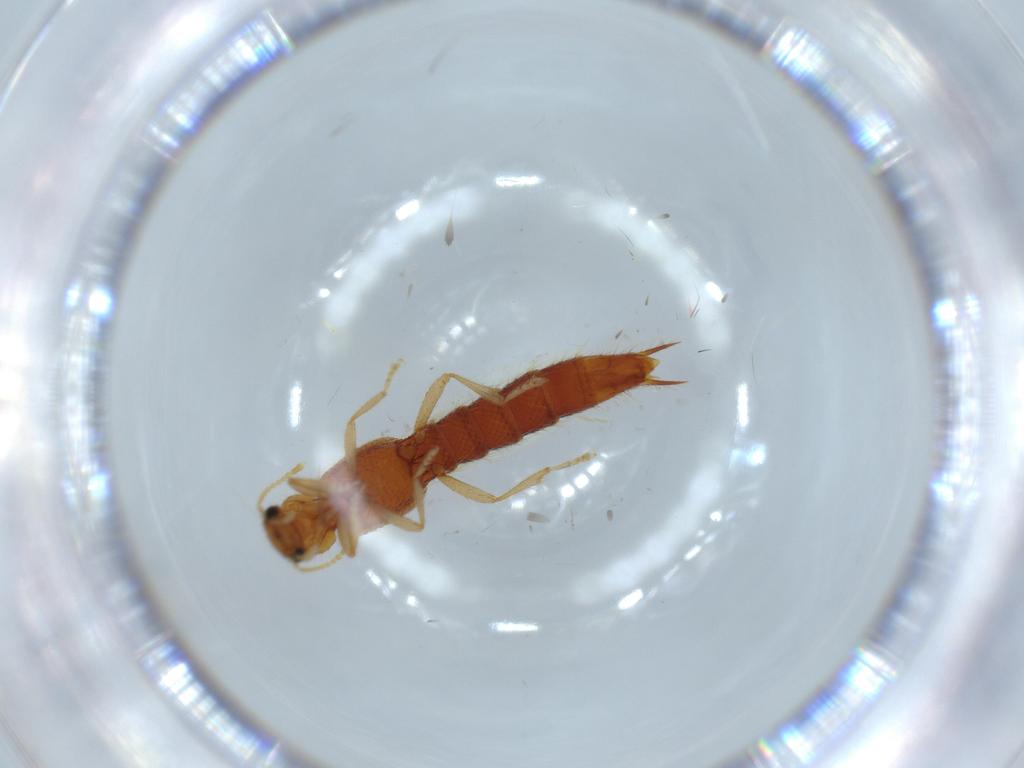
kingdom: Animalia
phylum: Arthropoda
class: Insecta
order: Coleoptera
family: Staphylinidae
